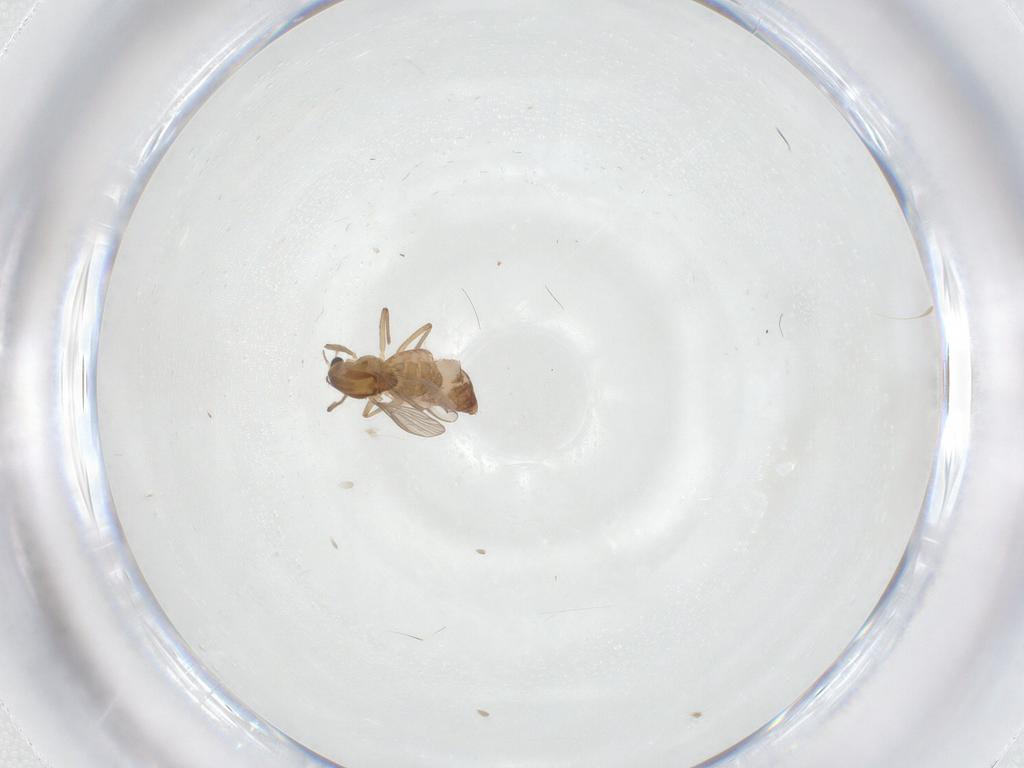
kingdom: Animalia
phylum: Arthropoda
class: Insecta
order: Diptera
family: Chironomidae
